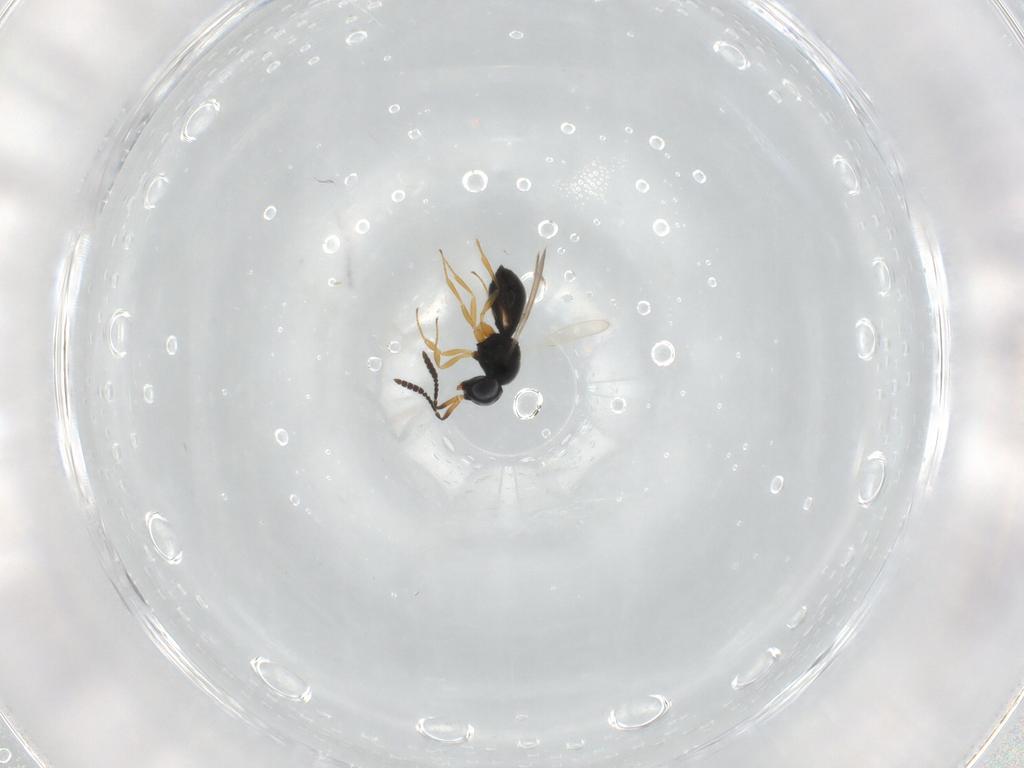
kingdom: Animalia
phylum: Arthropoda
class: Insecta
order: Hymenoptera
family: Scelionidae
